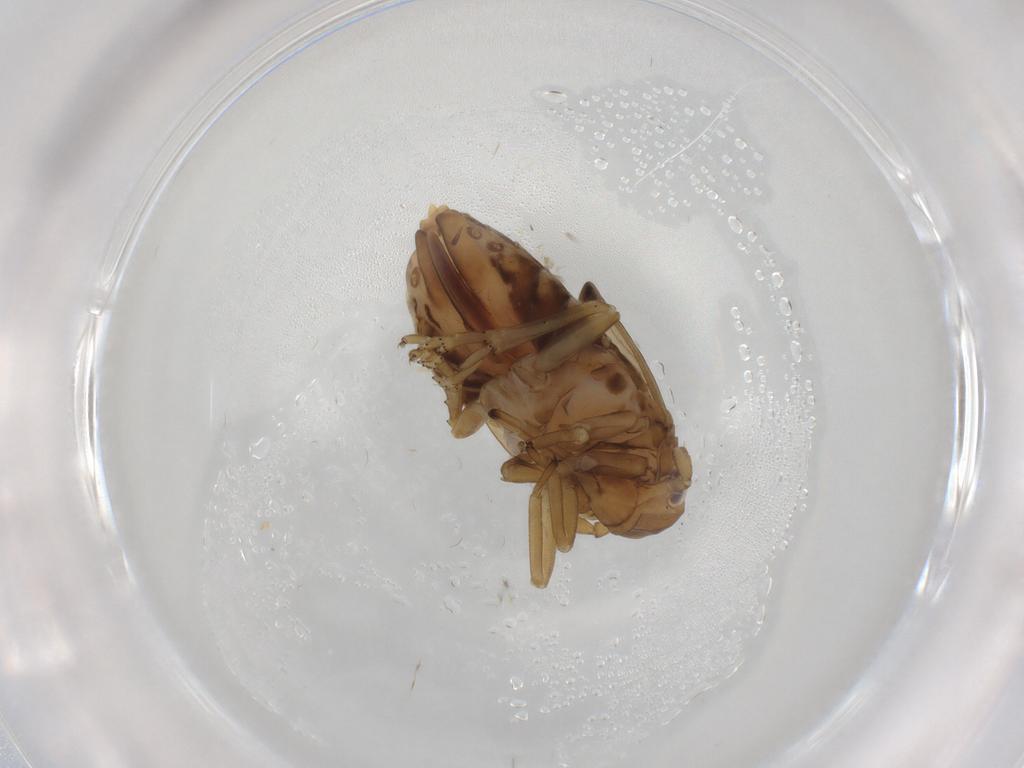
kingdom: Animalia
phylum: Arthropoda
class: Insecta
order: Hemiptera
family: Delphacidae
